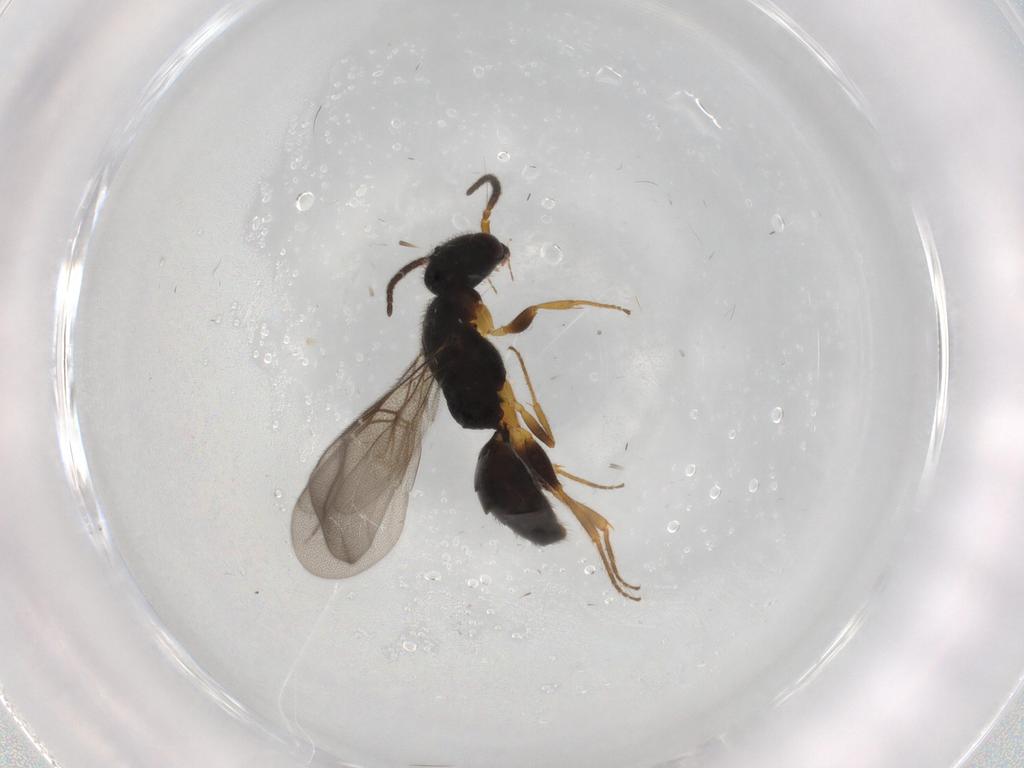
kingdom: Animalia
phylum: Arthropoda
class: Insecta
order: Hymenoptera
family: Bethylidae
